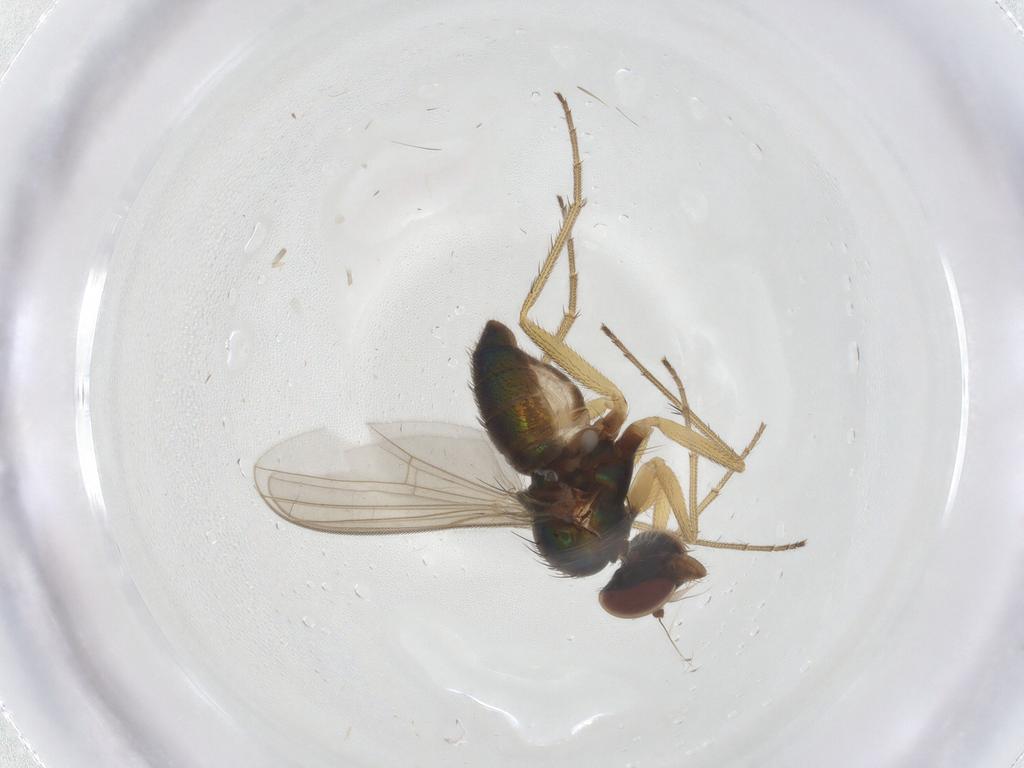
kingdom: Animalia
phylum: Arthropoda
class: Insecta
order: Diptera
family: Dolichopodidae
